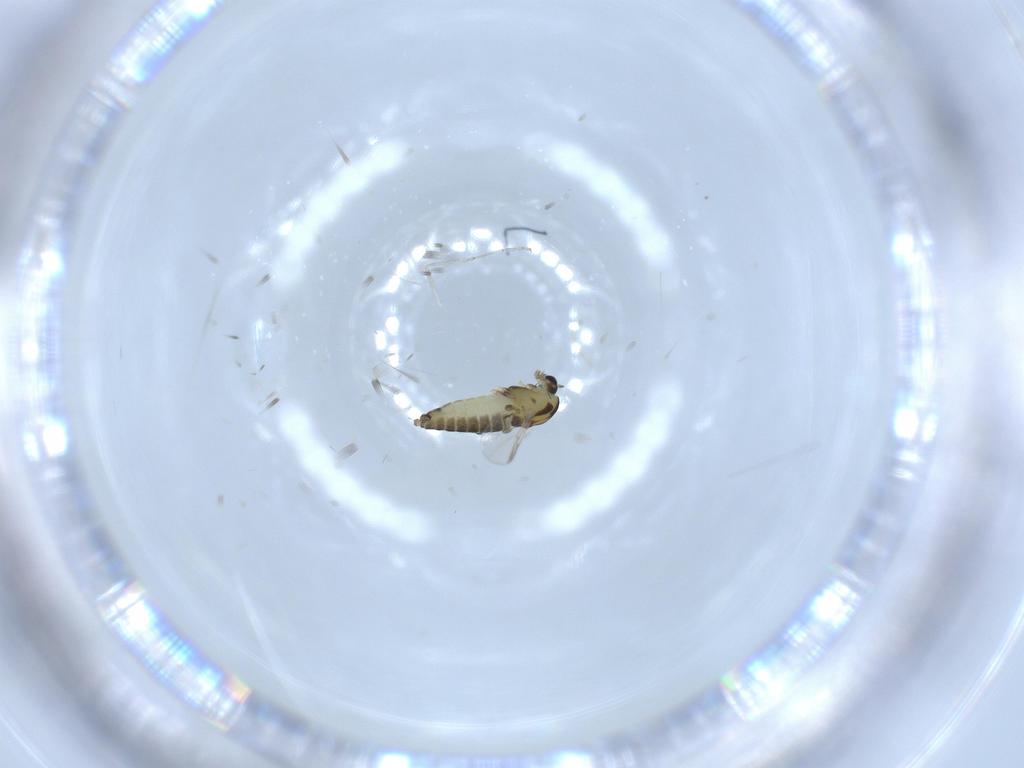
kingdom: Animalia
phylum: Arthropoda
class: Insecta
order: Diptera
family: Chironomidae
